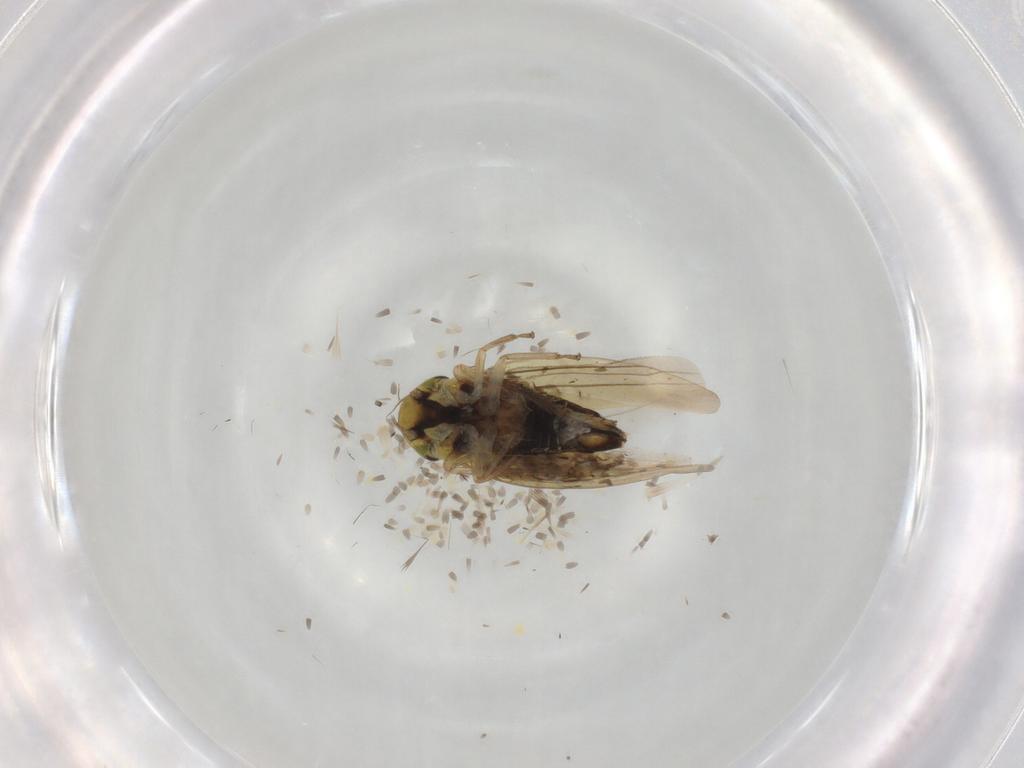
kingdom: Animalia
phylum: Arthropoda
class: Insecta
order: Hemiptera
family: Cicadellidae
